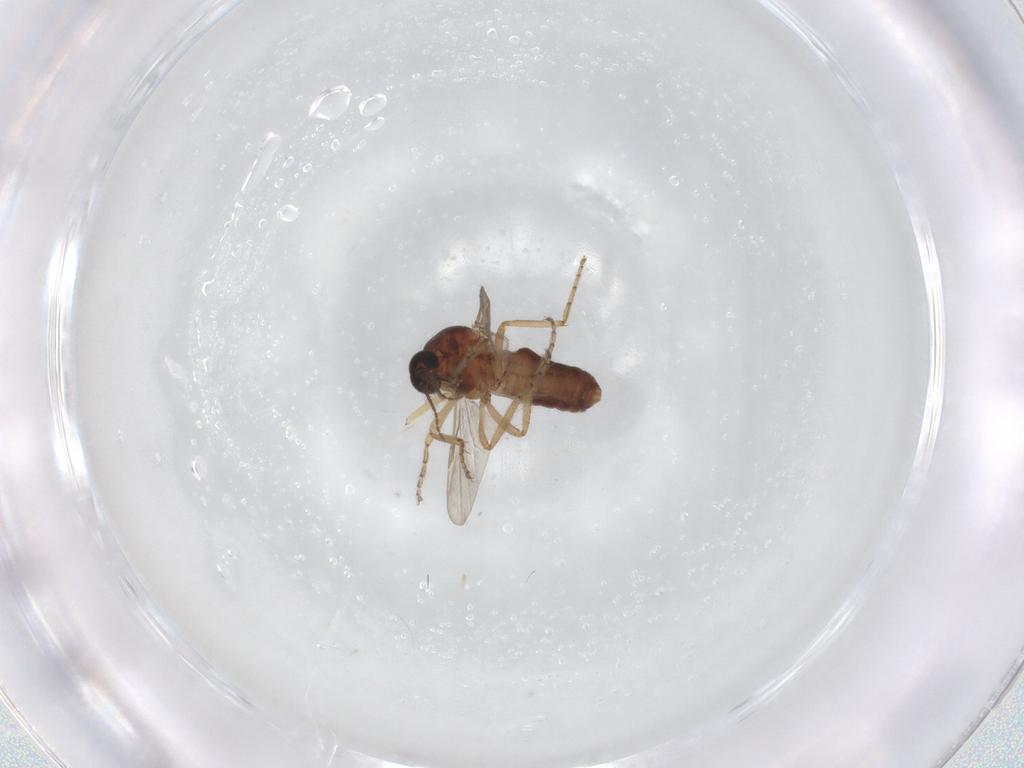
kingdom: Animalia
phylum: Arthropoda
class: Insecta
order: Diptera
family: Ceratopogonidae
